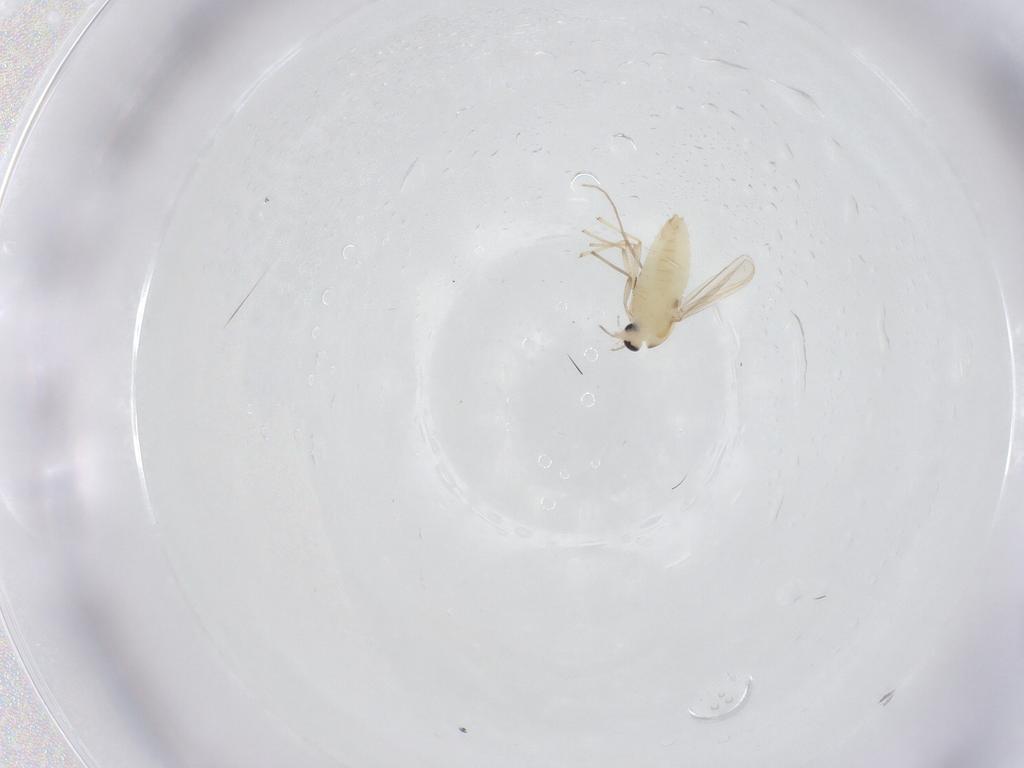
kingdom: Animalia
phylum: Arthropoda
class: Insecta
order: Diptera
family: Chironomidae
